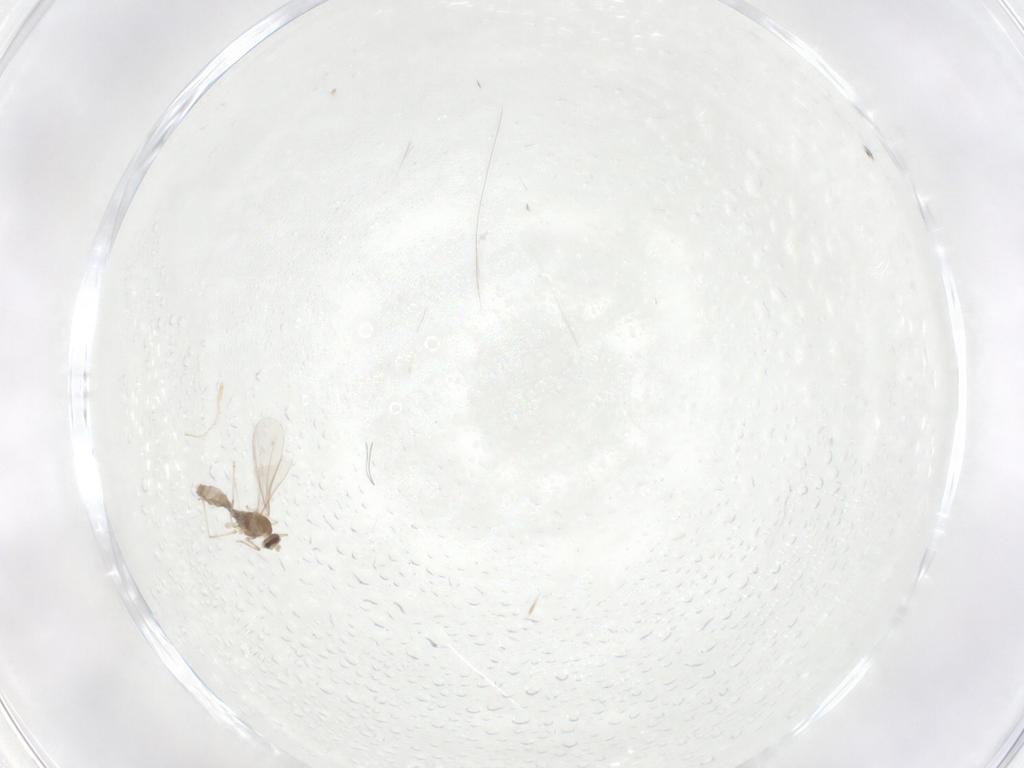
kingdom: Animalia
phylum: Arthropoda
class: Insecta
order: Diptera
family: Cecidomyiidae
